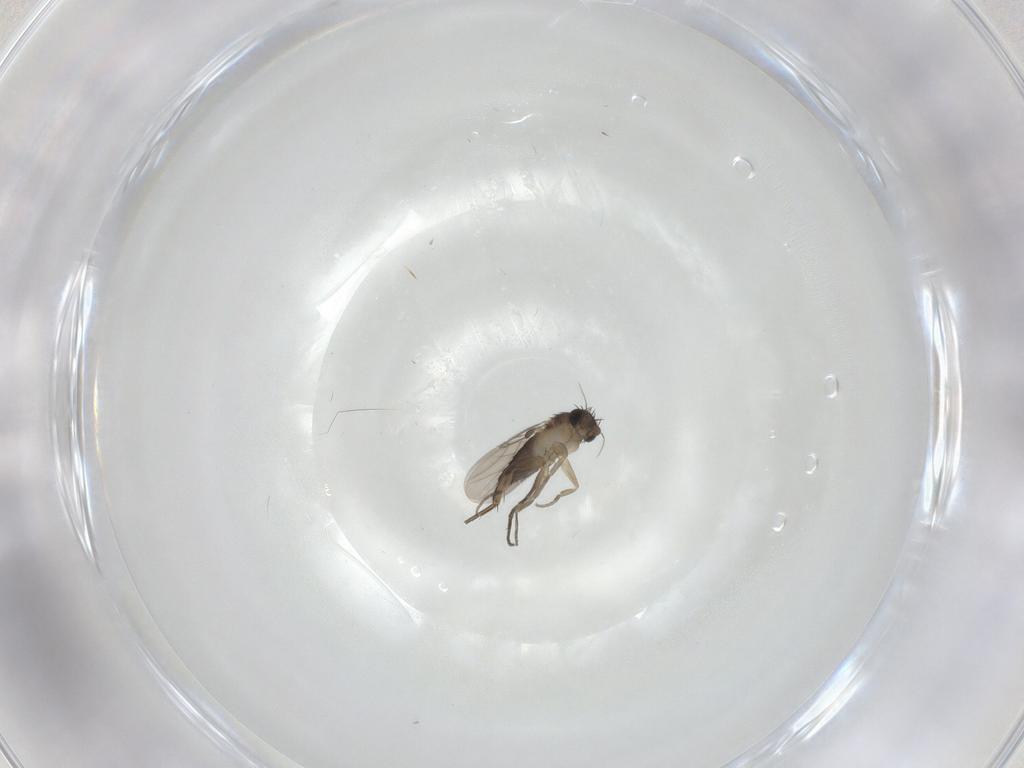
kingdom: Animalia
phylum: Arthropoda
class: Insecta
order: Diptera
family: Phoridae
